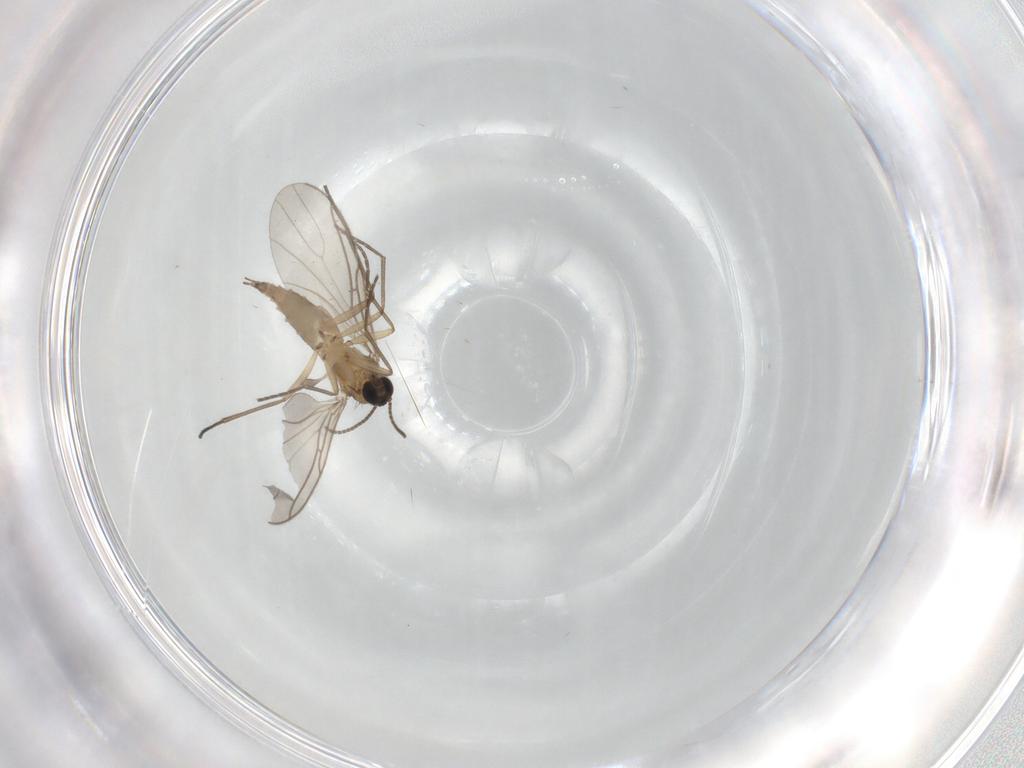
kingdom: Animalia
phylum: Arthropoda
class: Insecta
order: Diptera
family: Sciaridae
